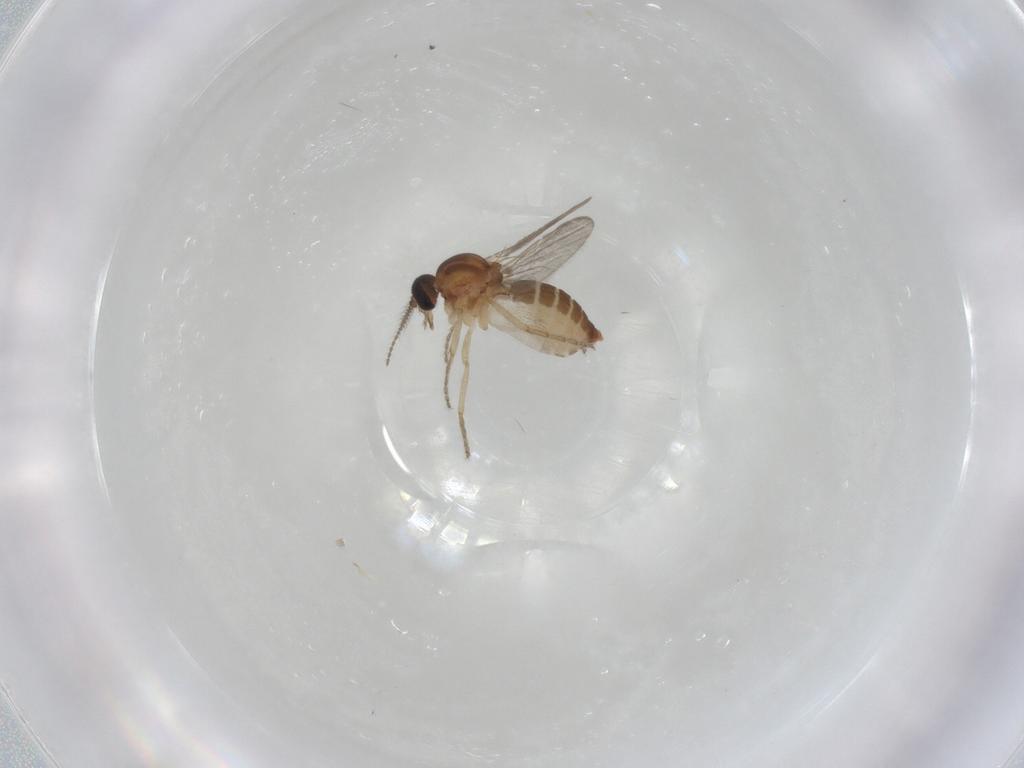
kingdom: Animalia
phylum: Arthropoda
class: Insecta
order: Diptera
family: Ceratopogonidae
